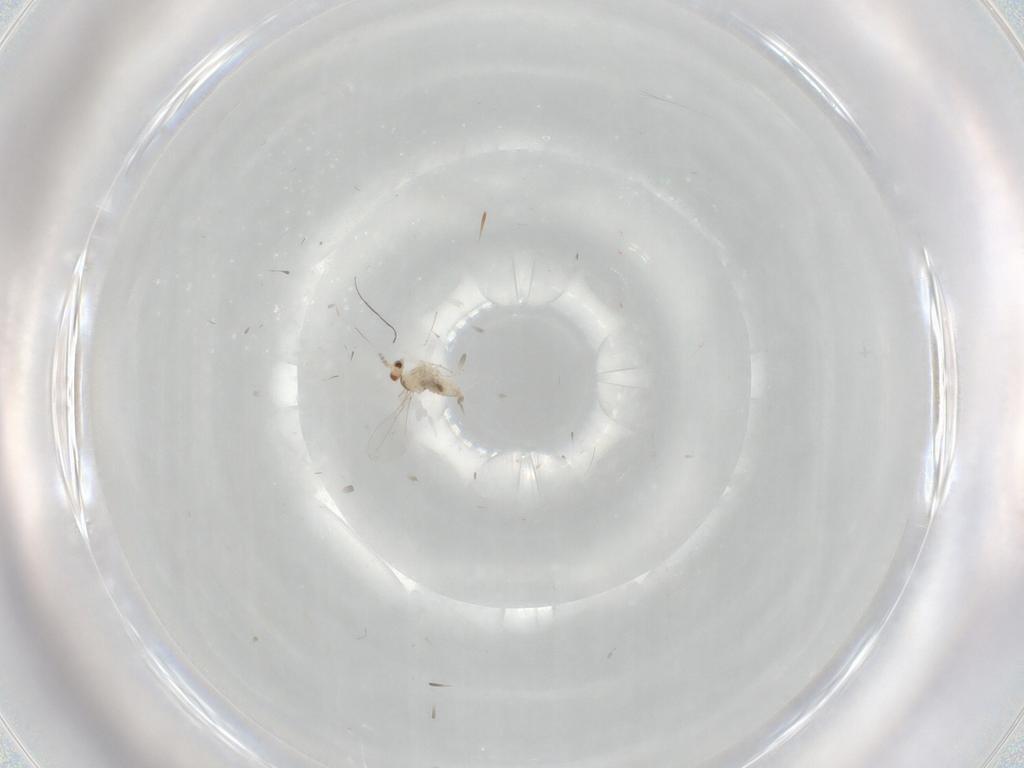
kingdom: Animalia
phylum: Arthropoda
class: Insecta
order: Diptera
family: Cecidomyiidae
